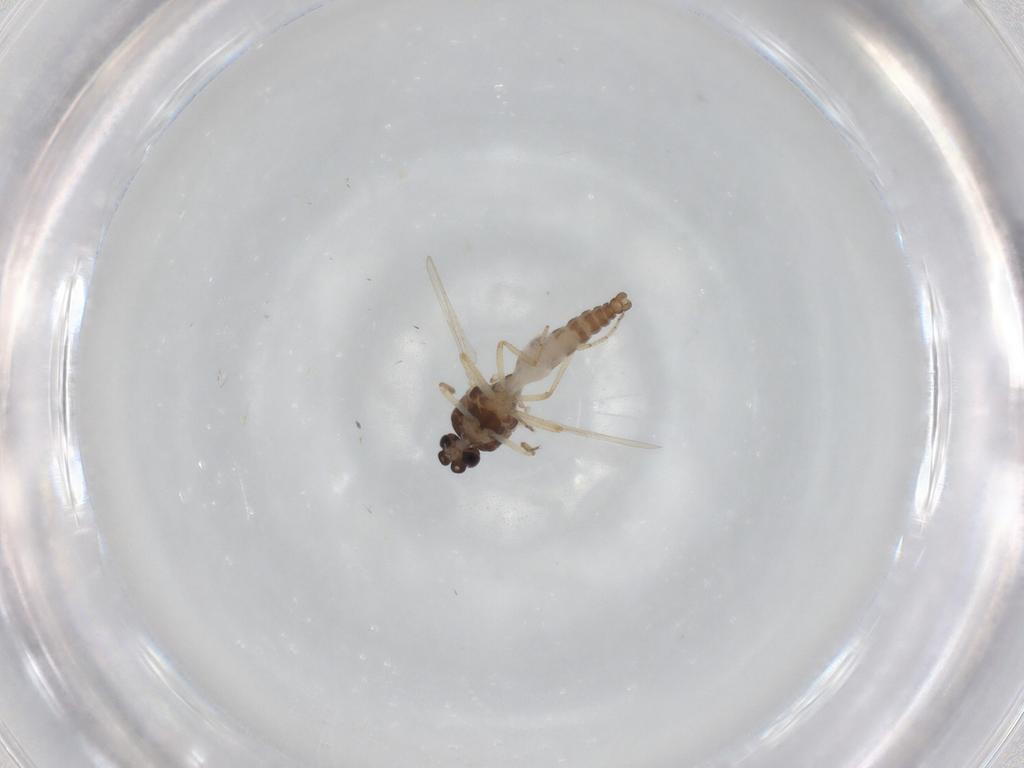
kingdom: Animalia
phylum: Arthropoda
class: Insecta
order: Diptera
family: Ceratopogonidae
